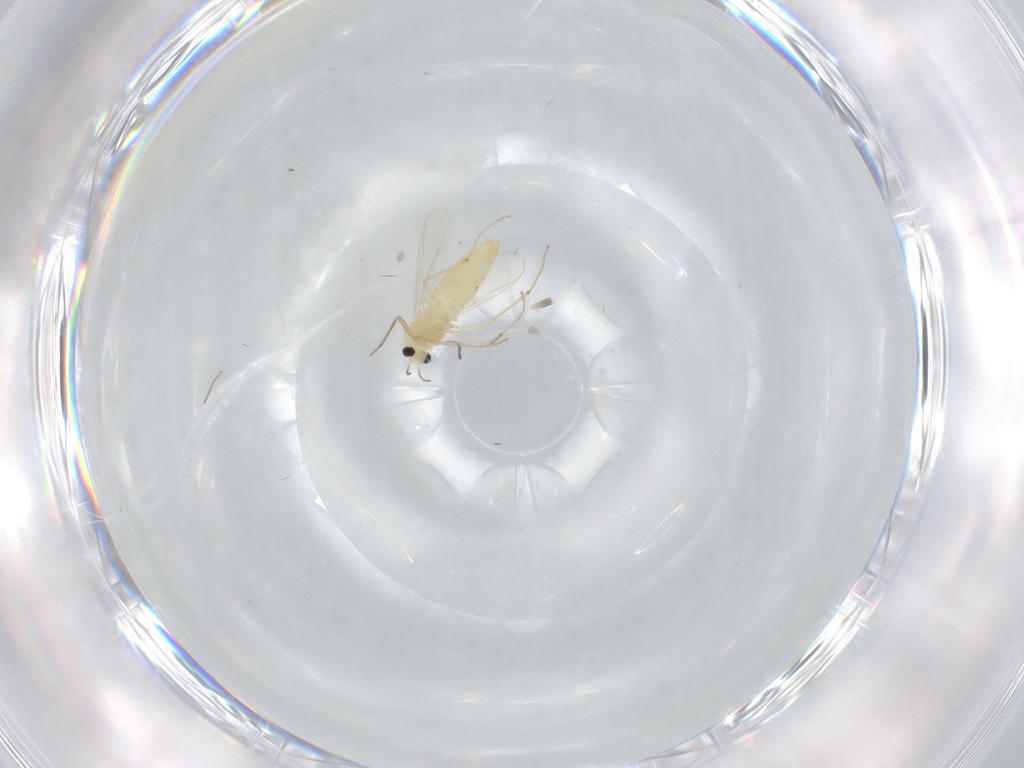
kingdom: Animalia
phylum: Arthropoda
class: Insecta
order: Diptera
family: Chironomidae
